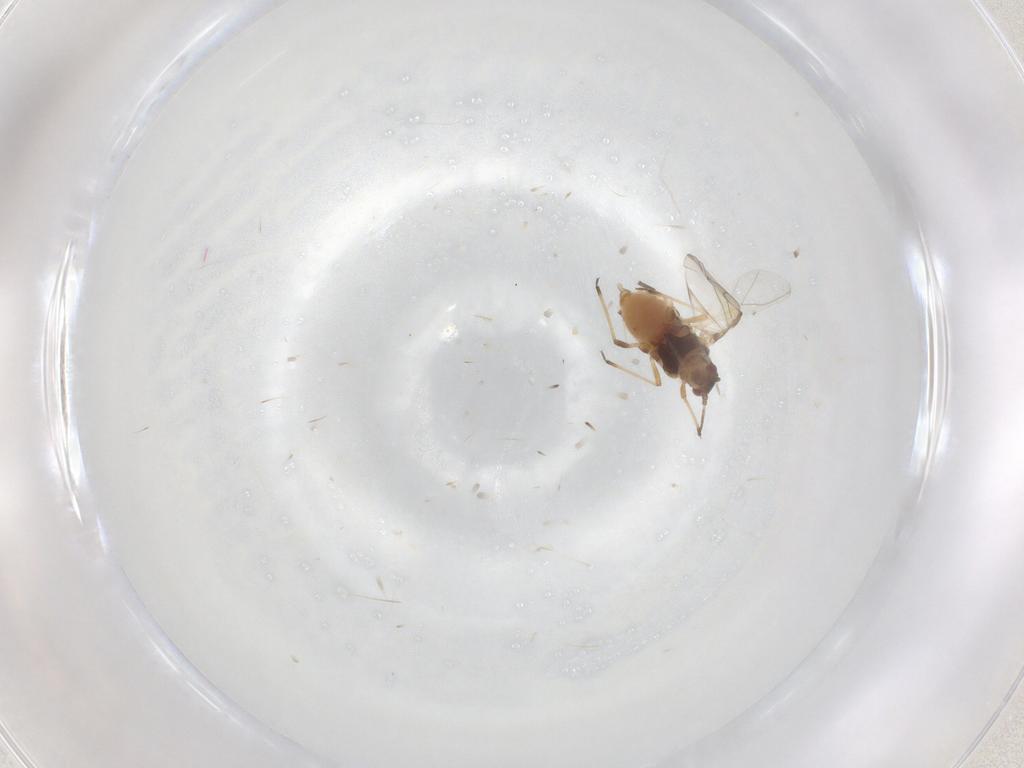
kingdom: Animalia
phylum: Arthropoda
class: Insecta
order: Hemiptera
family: Aphididae
